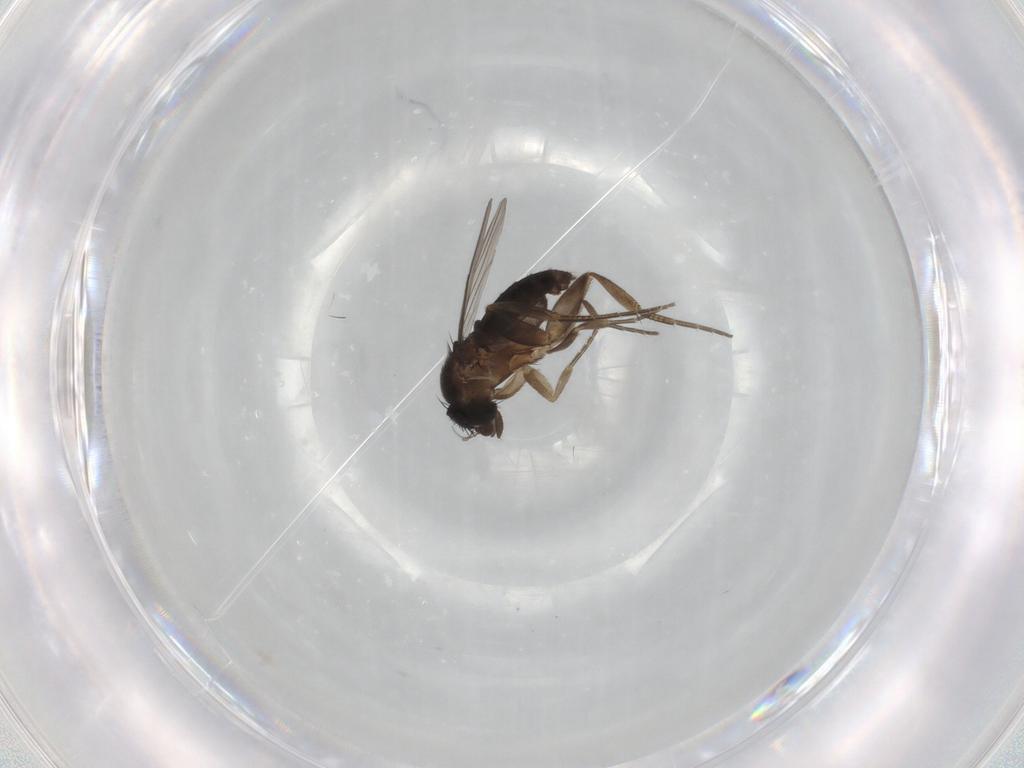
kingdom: Animalia
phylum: Arthropoda
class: Insecta
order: Diptera
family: Phoridae
